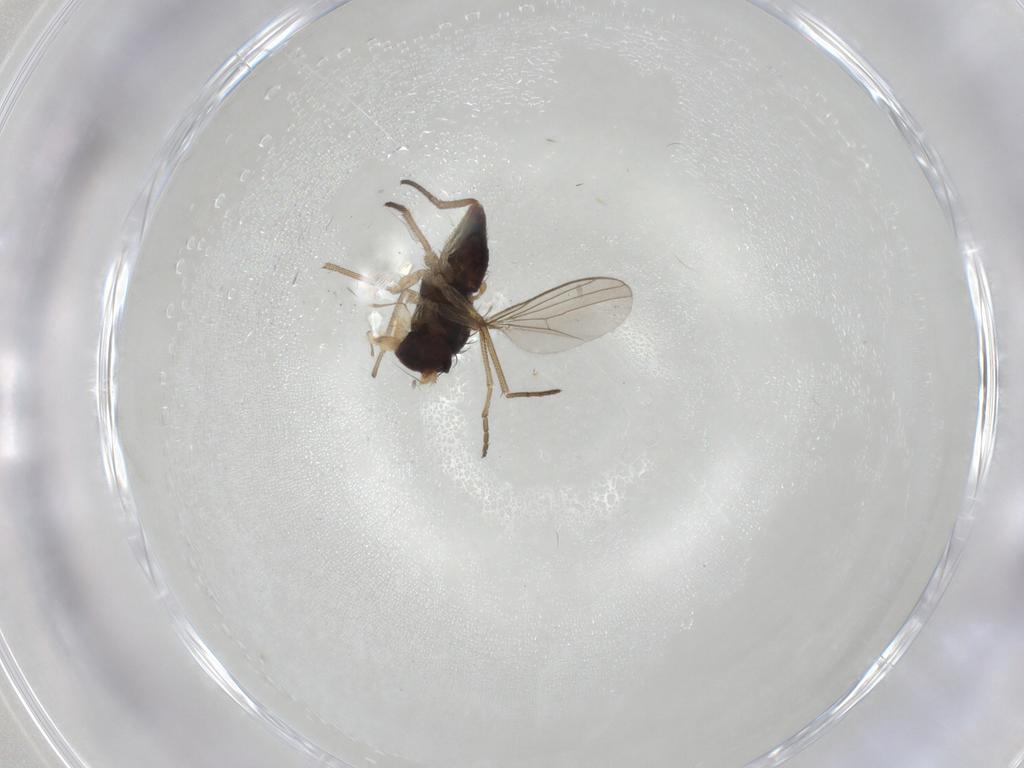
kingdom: Animalia
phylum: Arthropoda
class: Insecta
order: Diptera
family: Dolichopodidae
